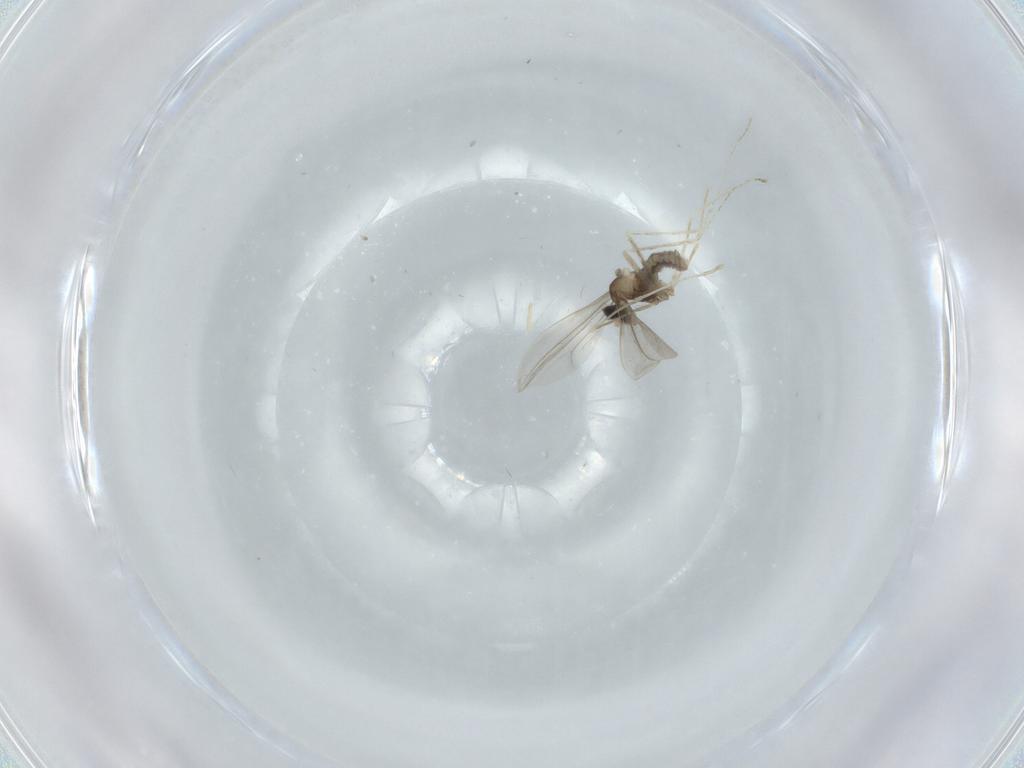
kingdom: Animalia
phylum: Arthropoda
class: Insecta
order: Diptera
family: Cecidomyiidae
